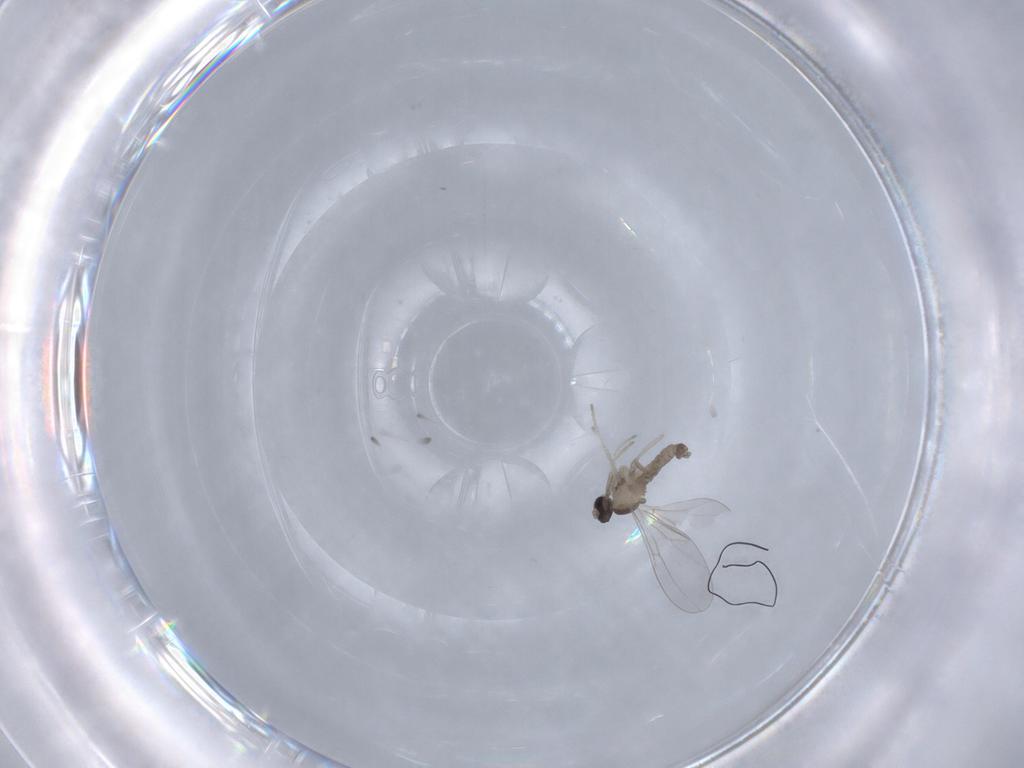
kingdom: Animalia
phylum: Arthropoda
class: Insecta
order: Diptera
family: Cecidomyiidae
